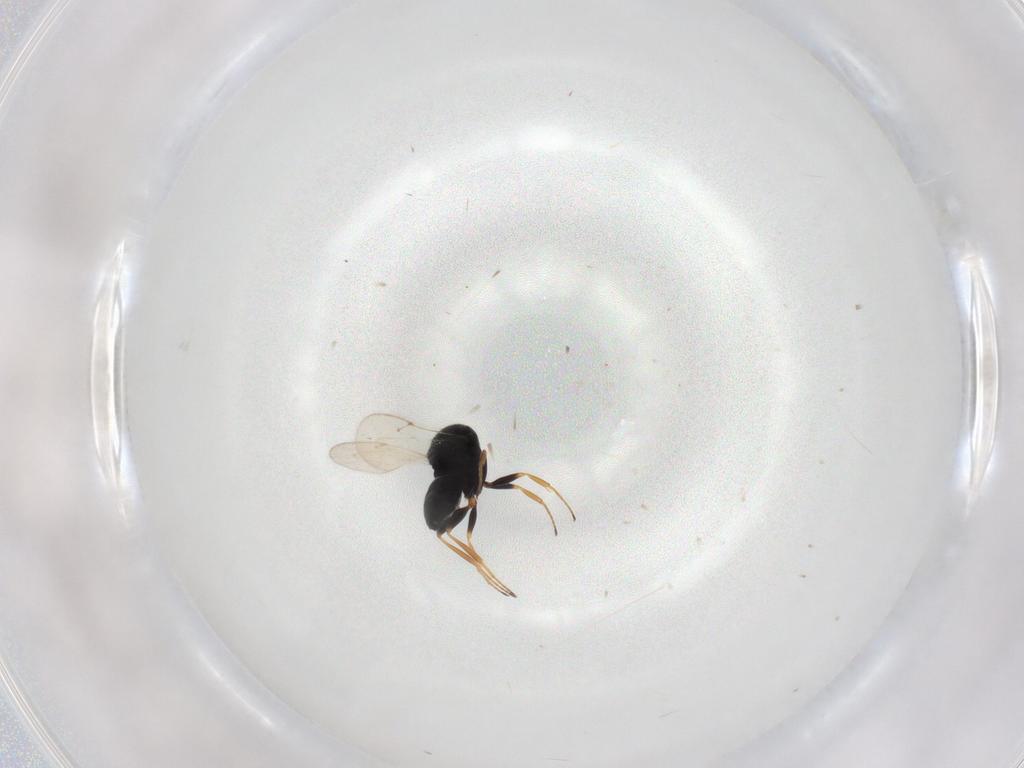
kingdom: Animalia
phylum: Arthropoda
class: Insecta
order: Coleoptera
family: Curculionidae
